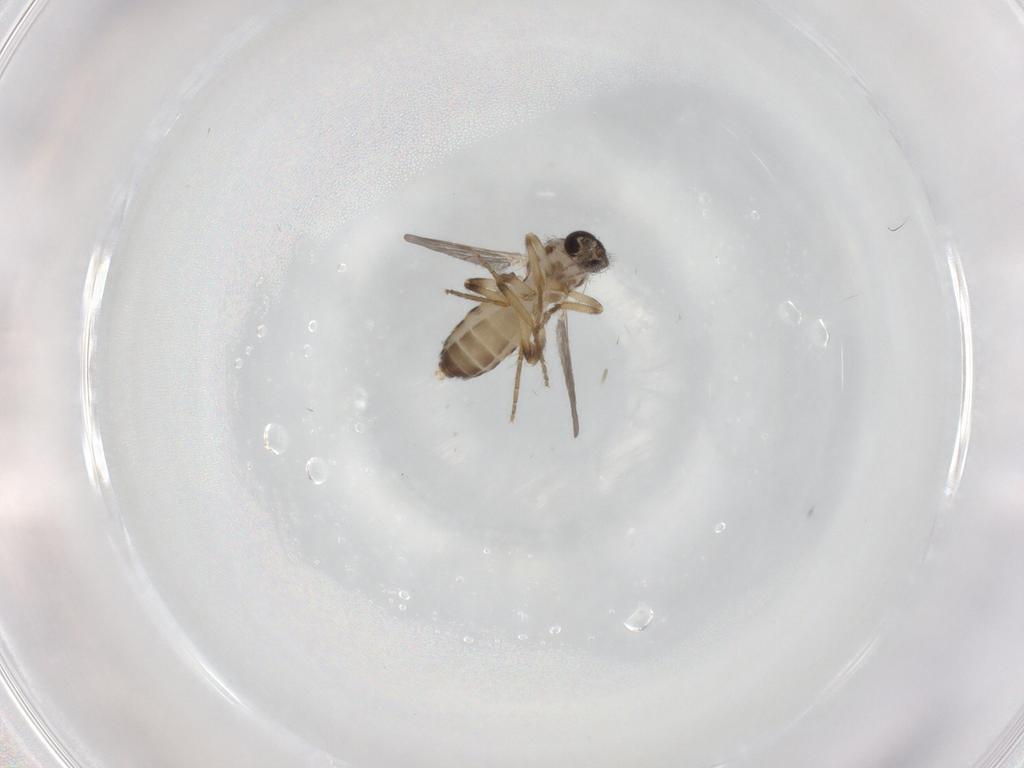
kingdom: Animalia
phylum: Arthropoda
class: Insecta
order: Diptera
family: Ceratopogonidae
